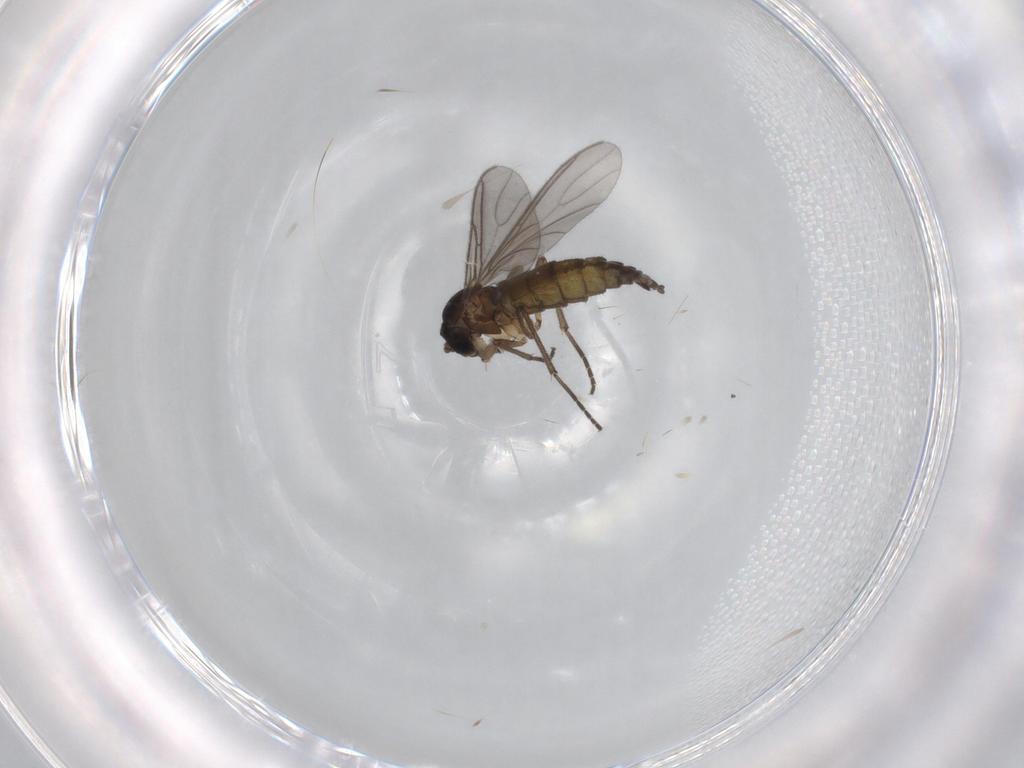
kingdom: Animalia
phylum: Arthropoda
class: Insecta
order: Diptera
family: Sciaridae
